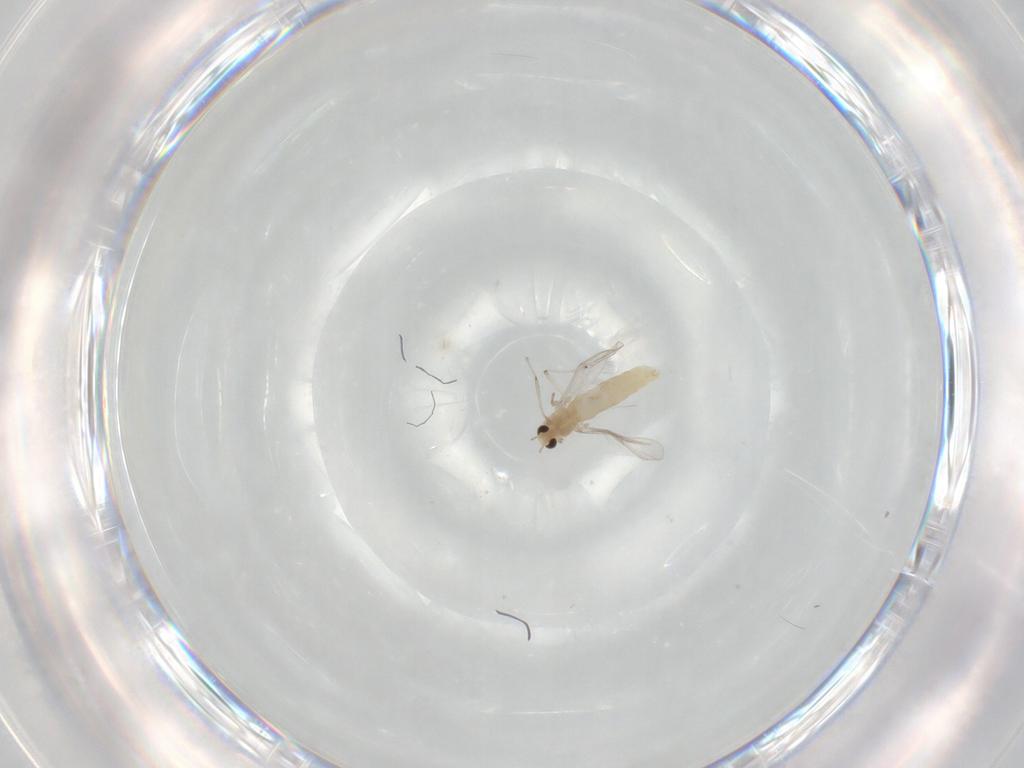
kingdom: Animalia
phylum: Arthropoda
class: Insecta
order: Diptera
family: Chironomidae
